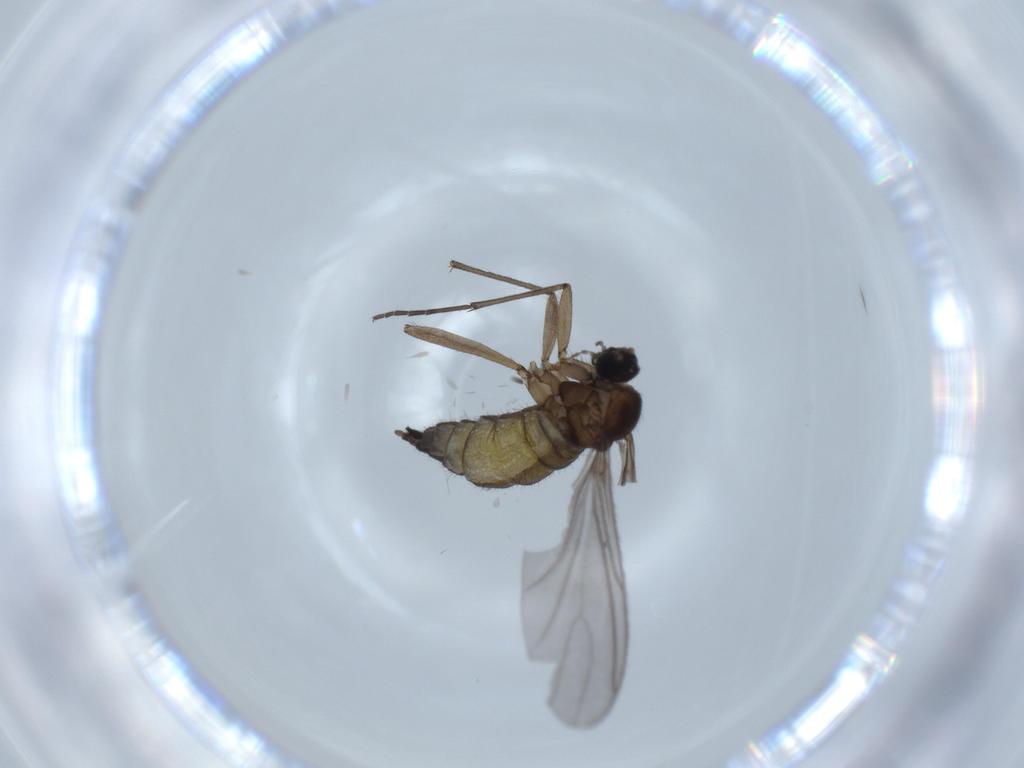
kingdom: Animalia
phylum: Arthropoda
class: Insecta
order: Diptera
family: Sciaridae
